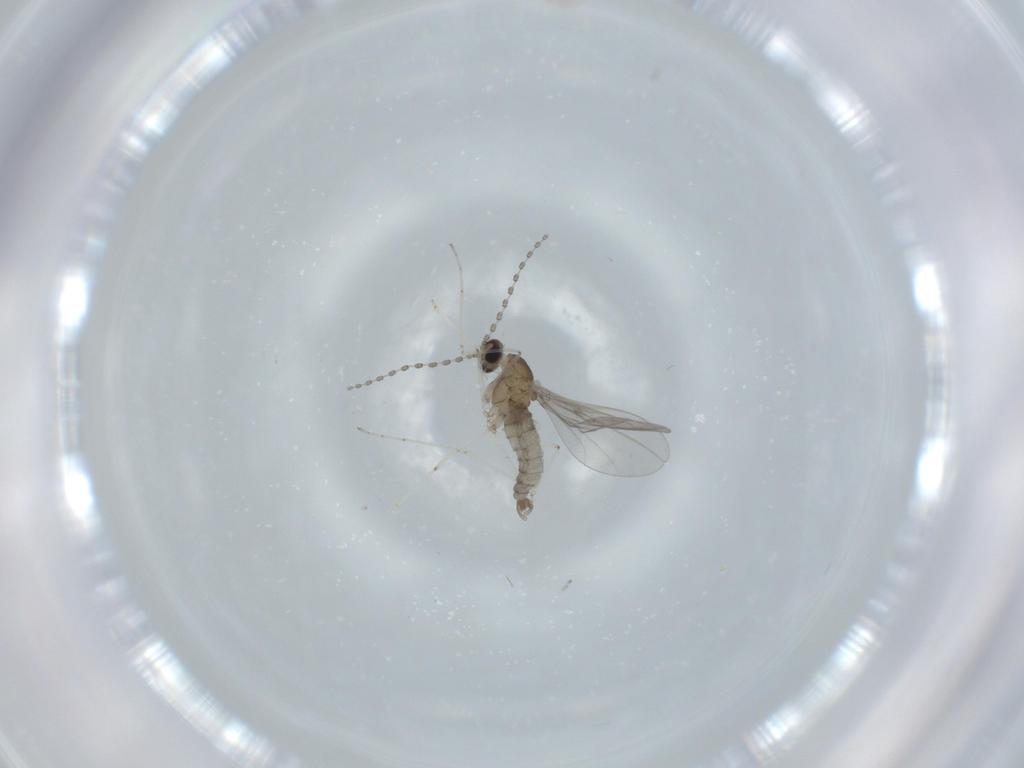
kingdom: Animalia
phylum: Arthropoda
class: Insecta
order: Diptera
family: Cecidomyiidae
